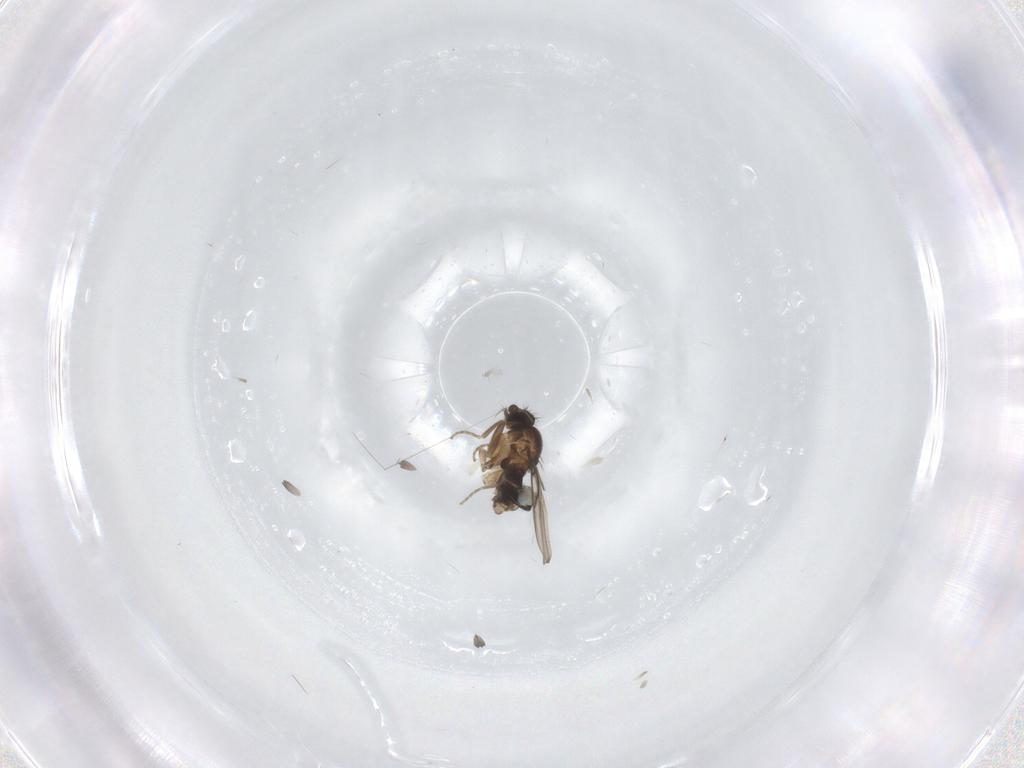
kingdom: Animalia
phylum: Arthropoda
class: Insecta
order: Diptera
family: Phoridae
